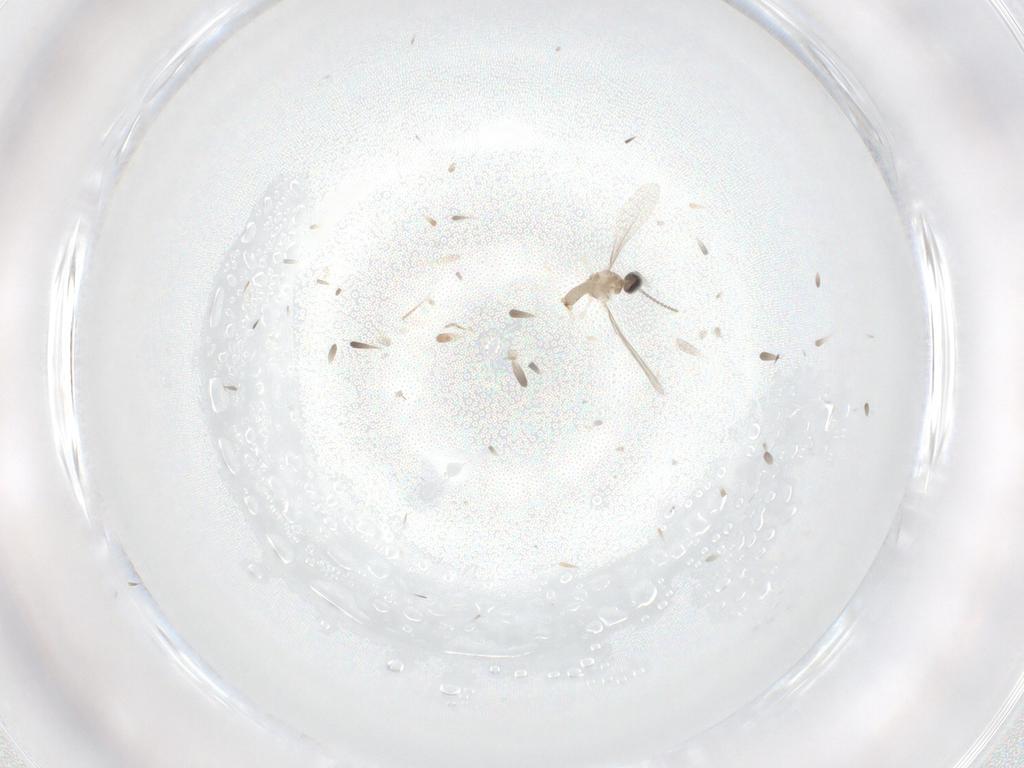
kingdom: Animalia
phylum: Arthropoda
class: Insecta
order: Diptera
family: Cecidomyiidae
